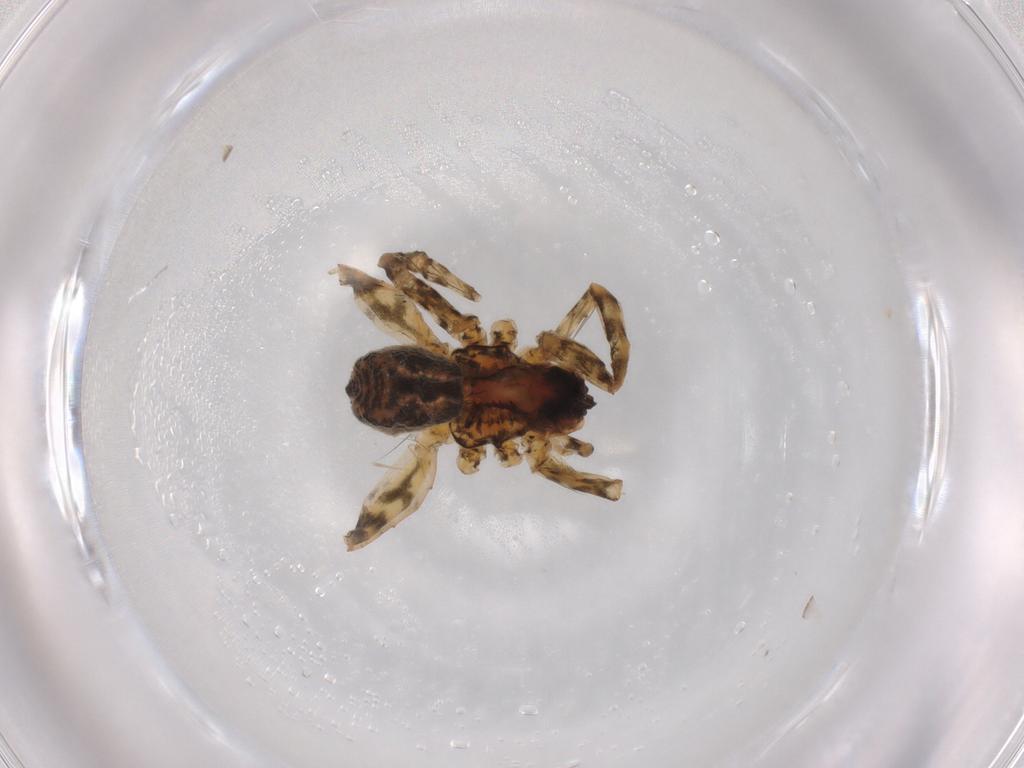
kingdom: Animalia
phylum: Arthropoda
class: Arachnida
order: Araneae
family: Lycosidae
